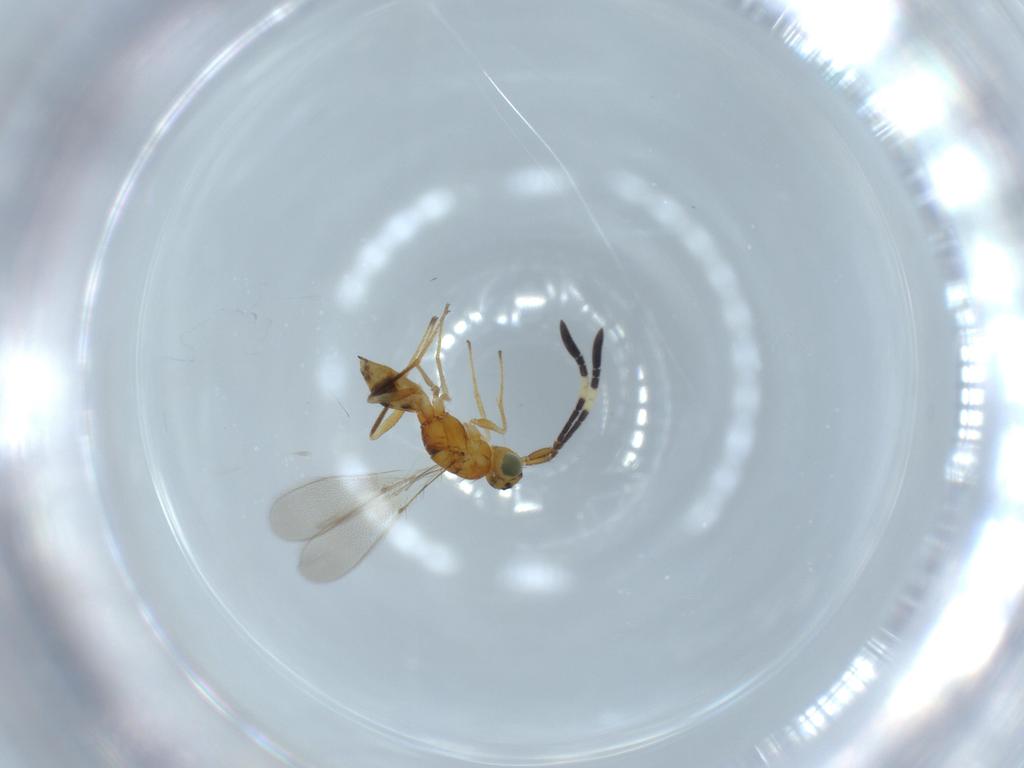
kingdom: Animalia
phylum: Arthropoda
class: Insecta
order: Hymenoptera
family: Mymaridae
